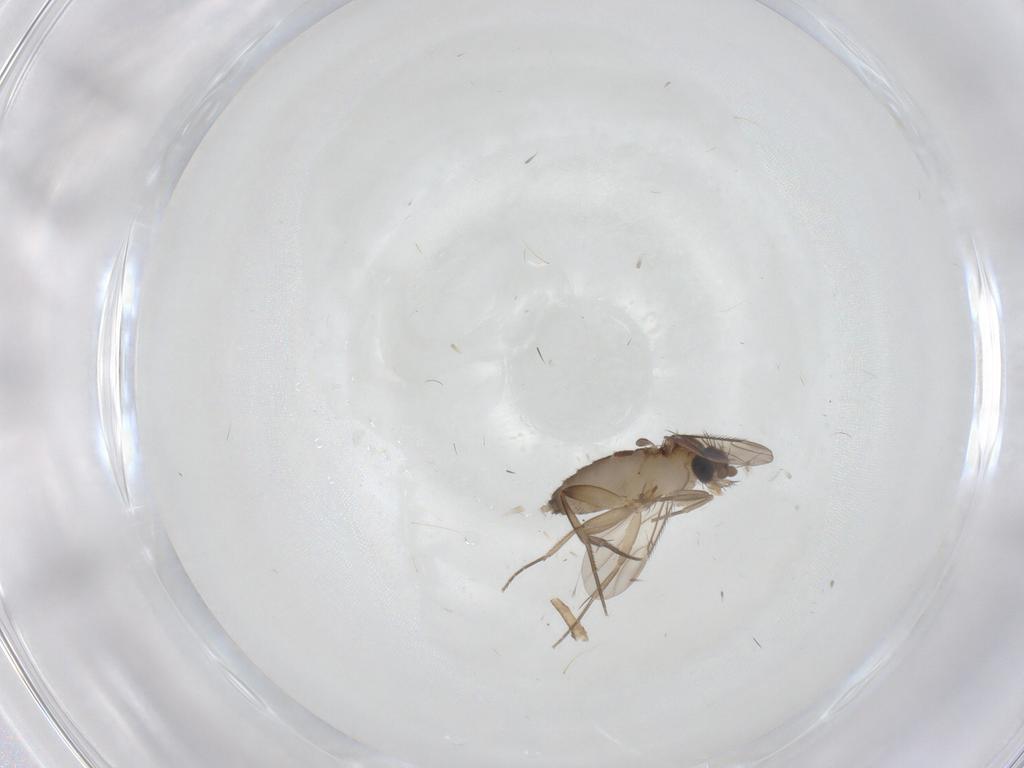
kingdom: Animalia
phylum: Arthropoda
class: Insecta
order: Diptera
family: Phoridae
